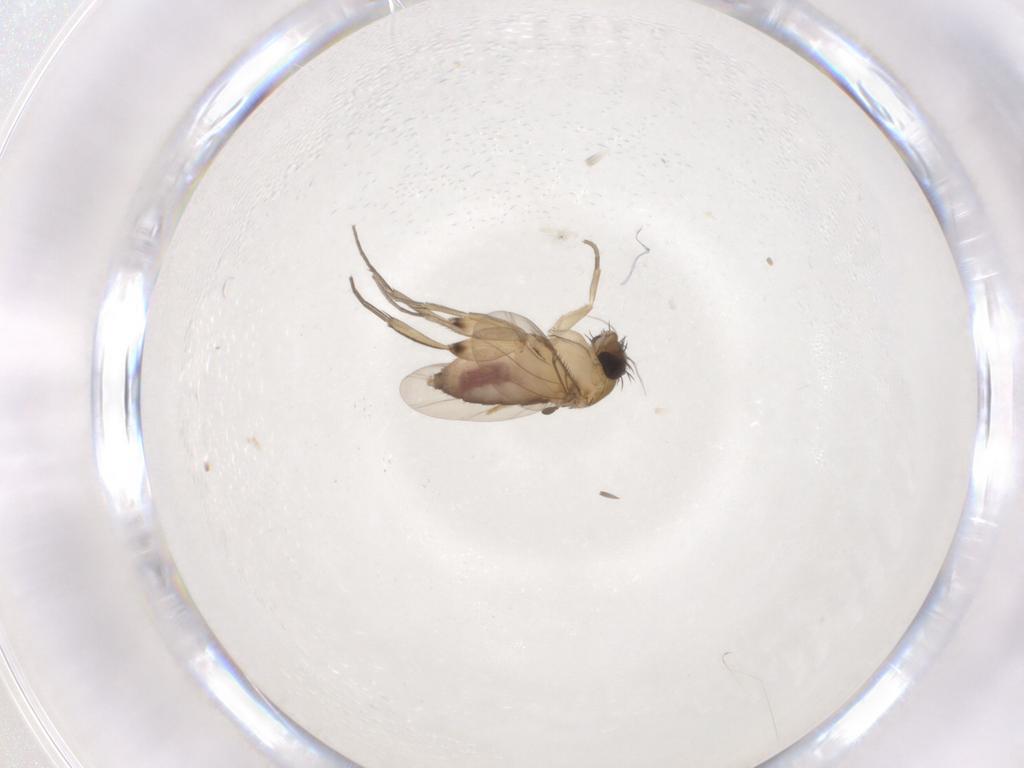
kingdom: Animalia
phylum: Arthropoda
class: Insecta
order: Diptera
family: Phoridae
